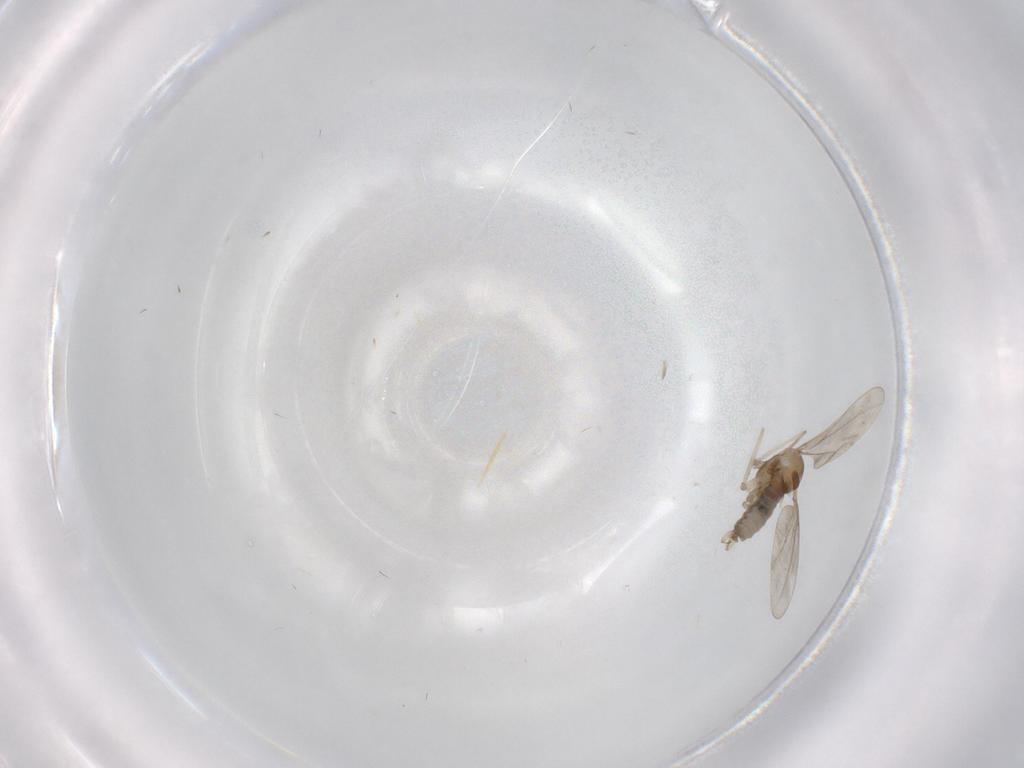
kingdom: Animalia
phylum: Arthropoda
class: Insecta
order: Diptera
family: Cecidomyiidae
